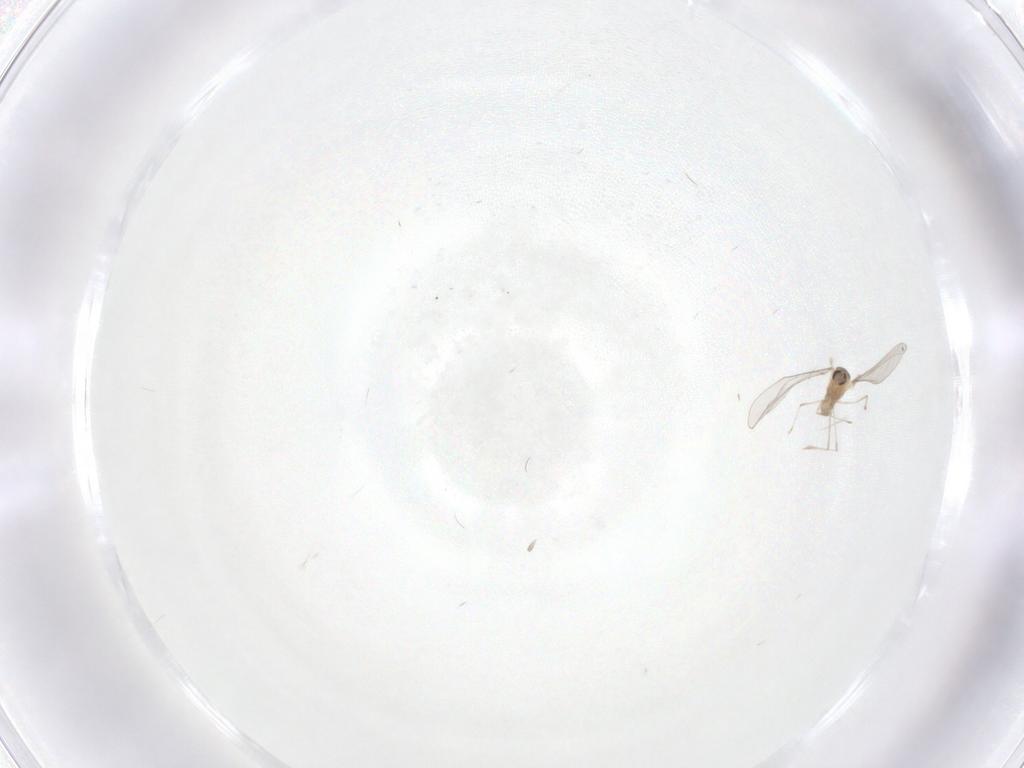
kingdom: Animalia
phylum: Arthropoda
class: Insecta
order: Diptera
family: Cecidomyiidae
